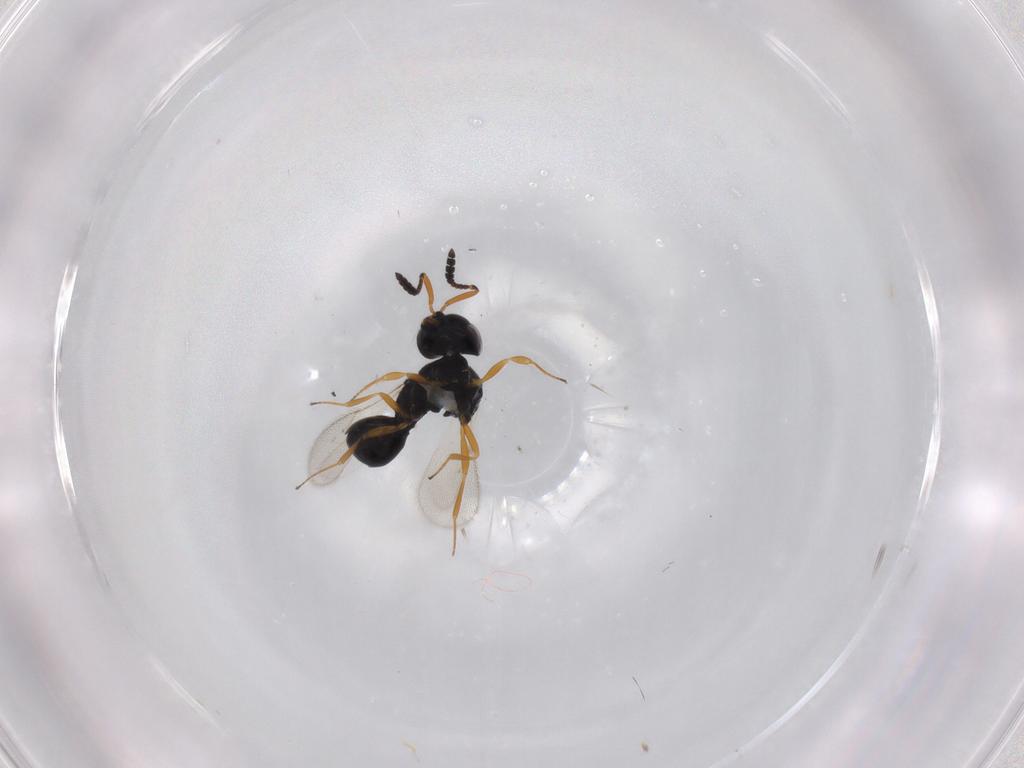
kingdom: Animalia
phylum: Arthropoda
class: Insecta
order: Hymenoptera
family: Scelionidae
